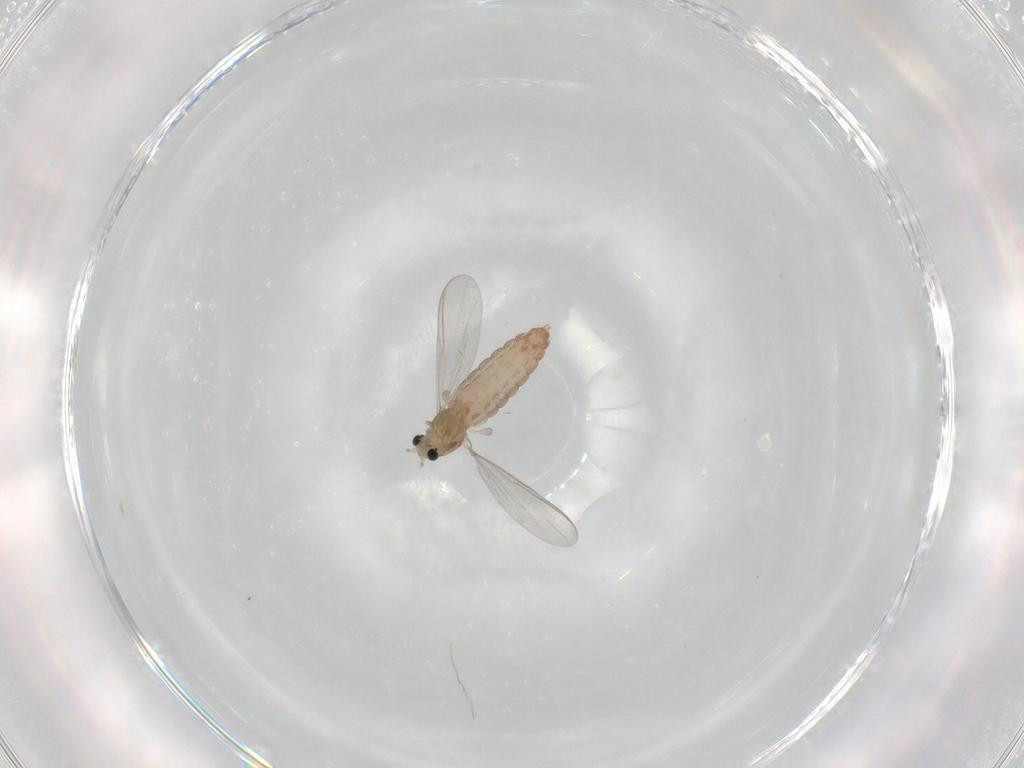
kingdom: Animalia
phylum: Arthropoda
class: Insecta
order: Diptera
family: Chironomidae
